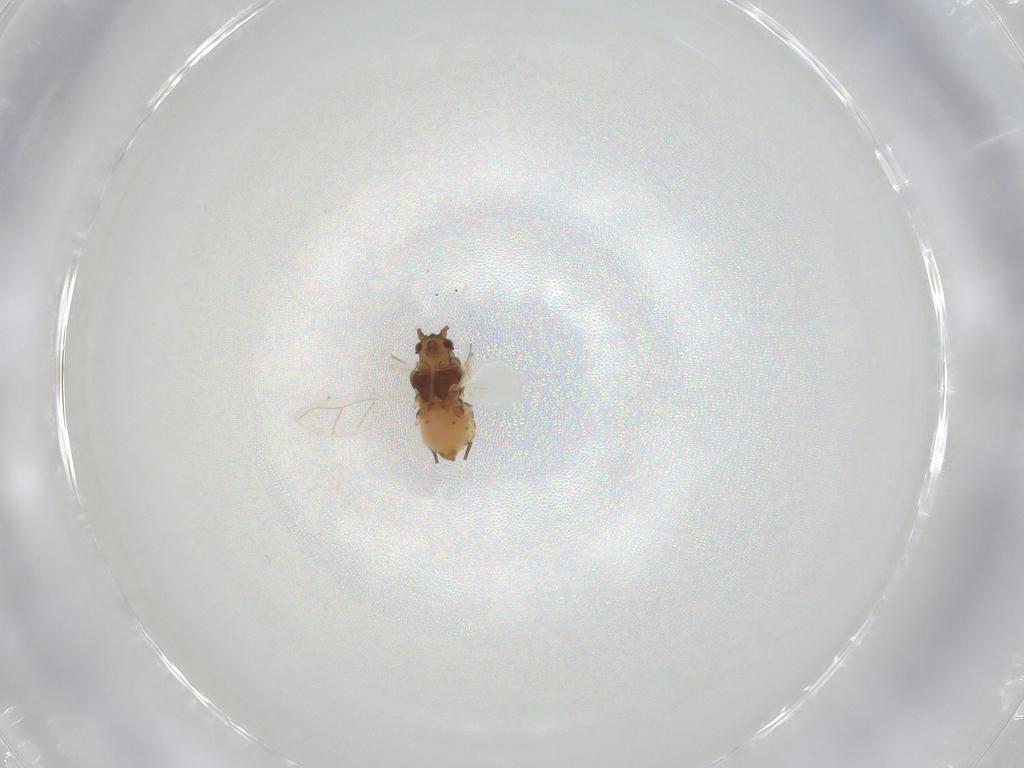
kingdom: Animalia
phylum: Arthropoda
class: Insecta
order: Hemiptera
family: Aphididae
